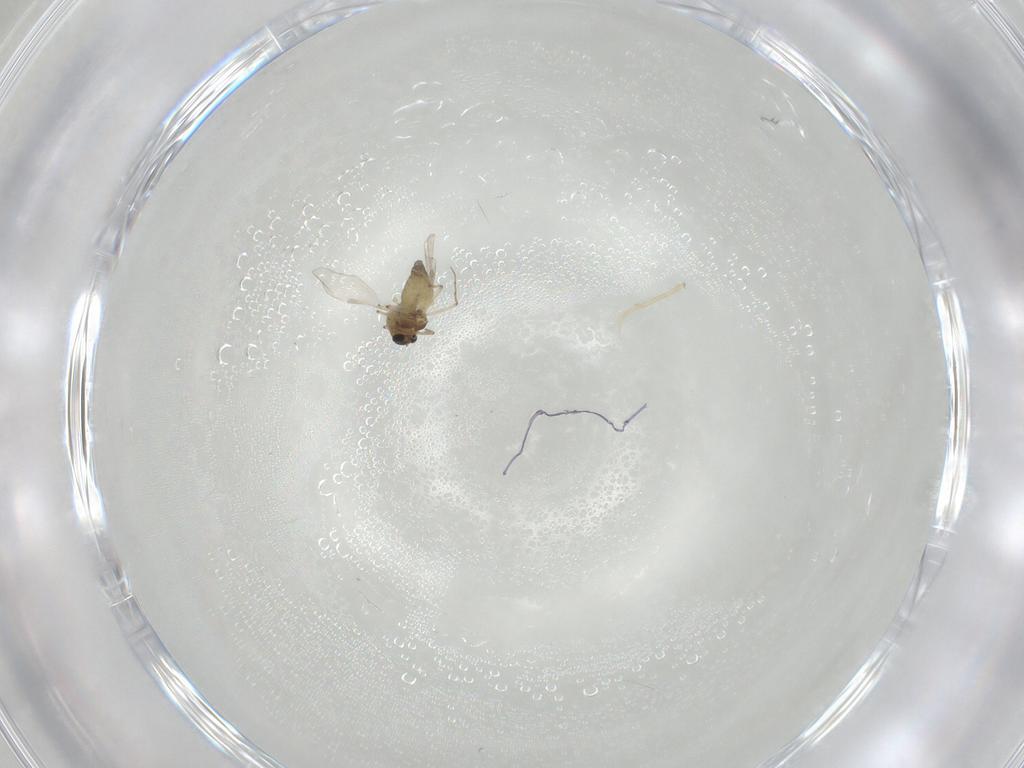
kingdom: Animalia
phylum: Arthropoda
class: Insecta
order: Diptera
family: Chironomidae
